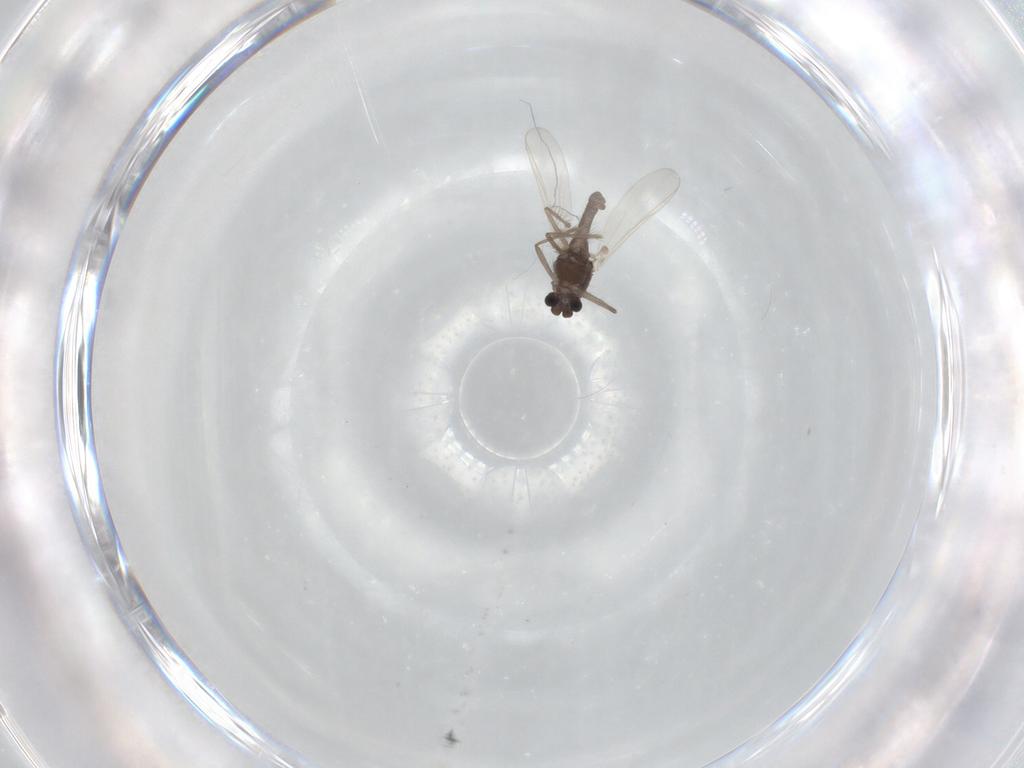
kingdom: Animalia
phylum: Arthropoda
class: Insecta
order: Diptera
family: Chironomidae
